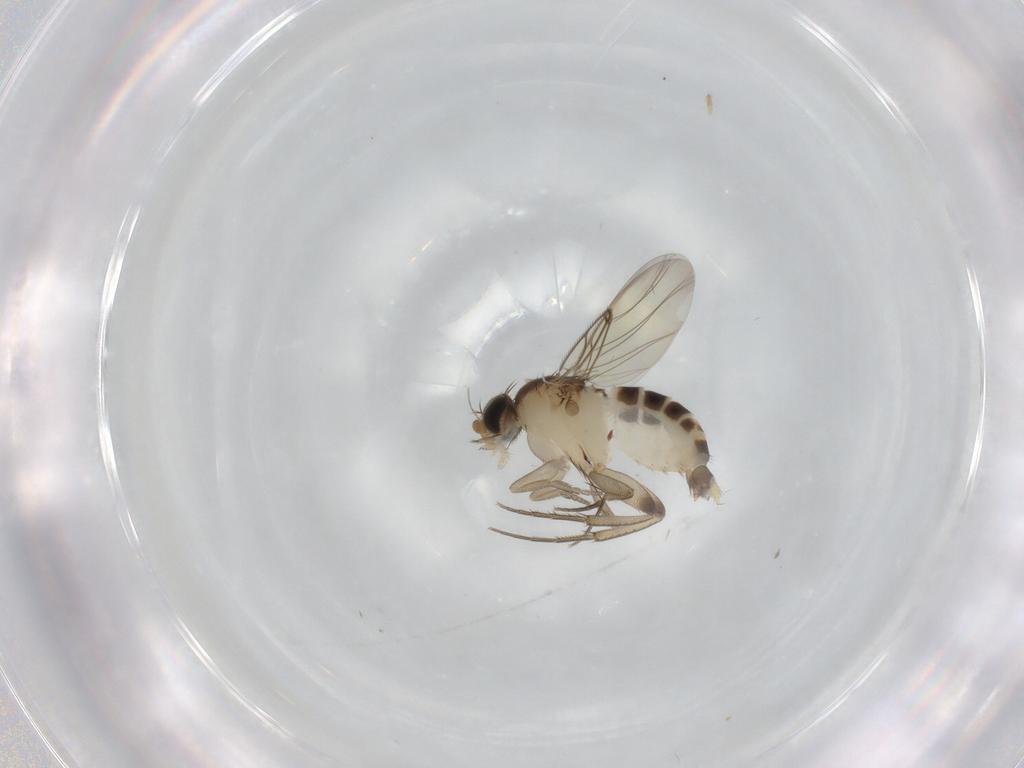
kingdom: Animalia
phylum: Arthropoda
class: Insecta
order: Diptera
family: Phoridae
